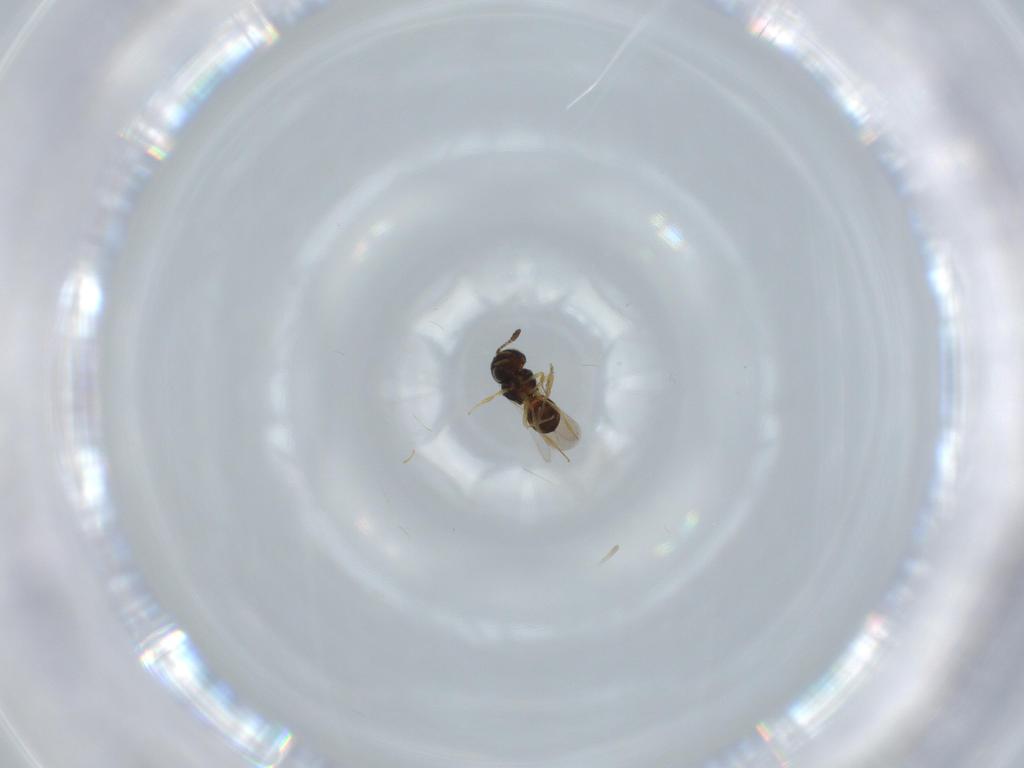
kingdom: Animalia
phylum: Arthropoda
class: Insecta
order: Hymenoptera
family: Scelionidae
